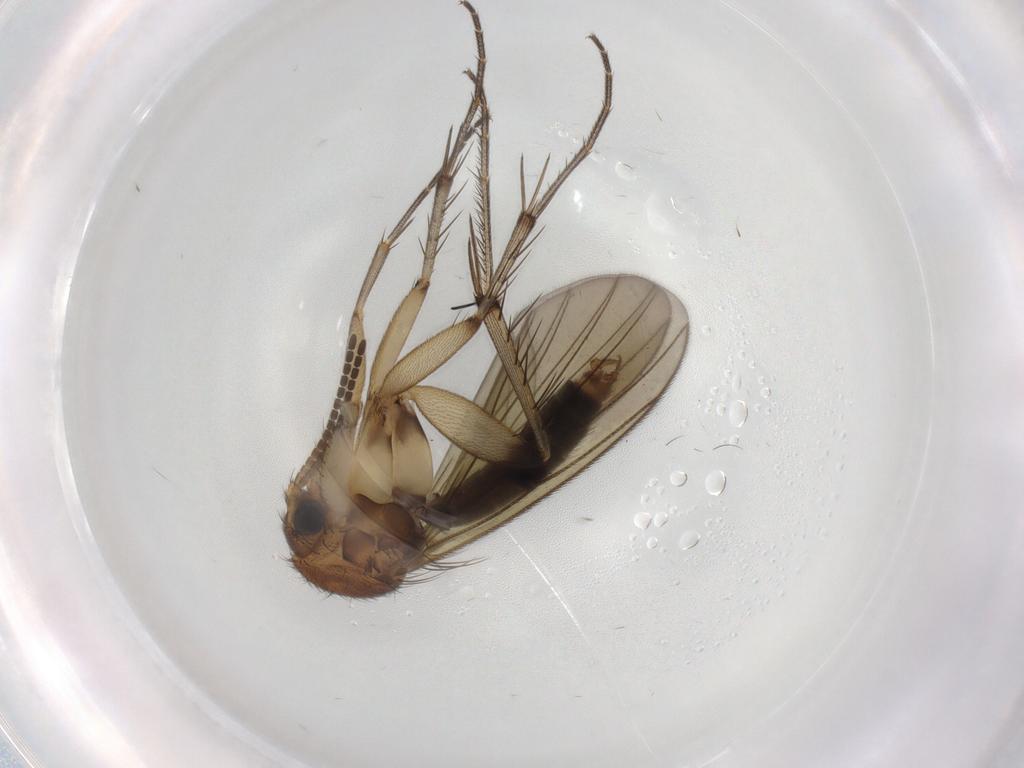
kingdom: Animalia
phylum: Arthropoda
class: Insecta
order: Diptera
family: Mycetophilidae
